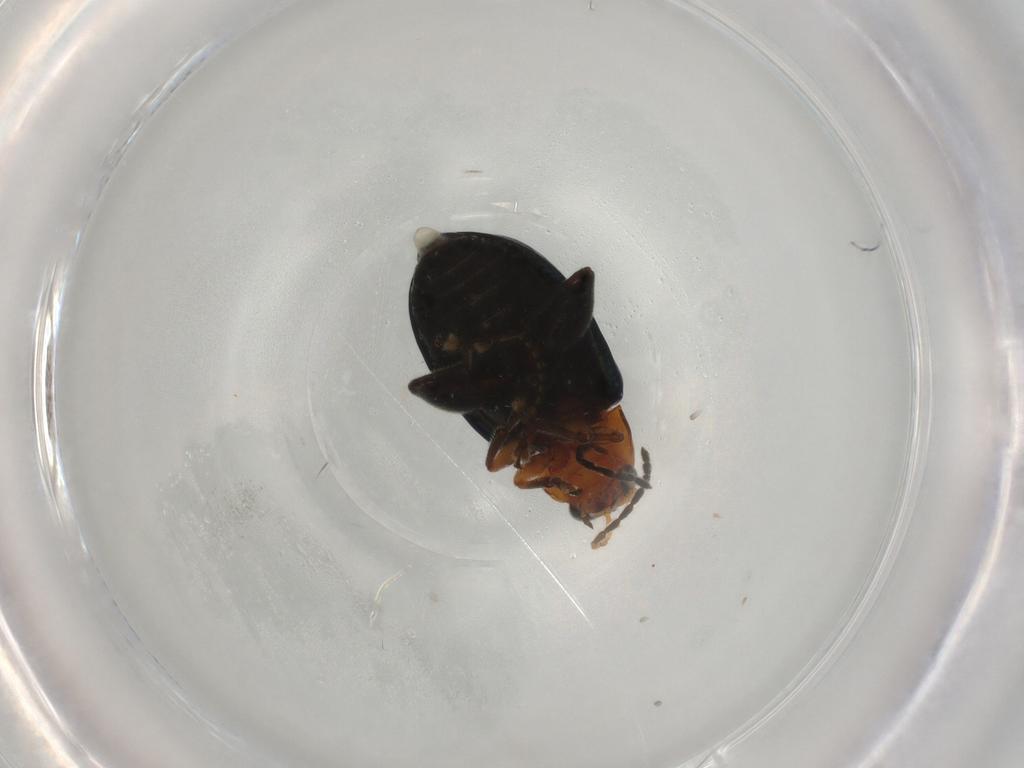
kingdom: Animalia
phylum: Arthropoda
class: Insecta
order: Coleoptera
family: Chrysomelidae
